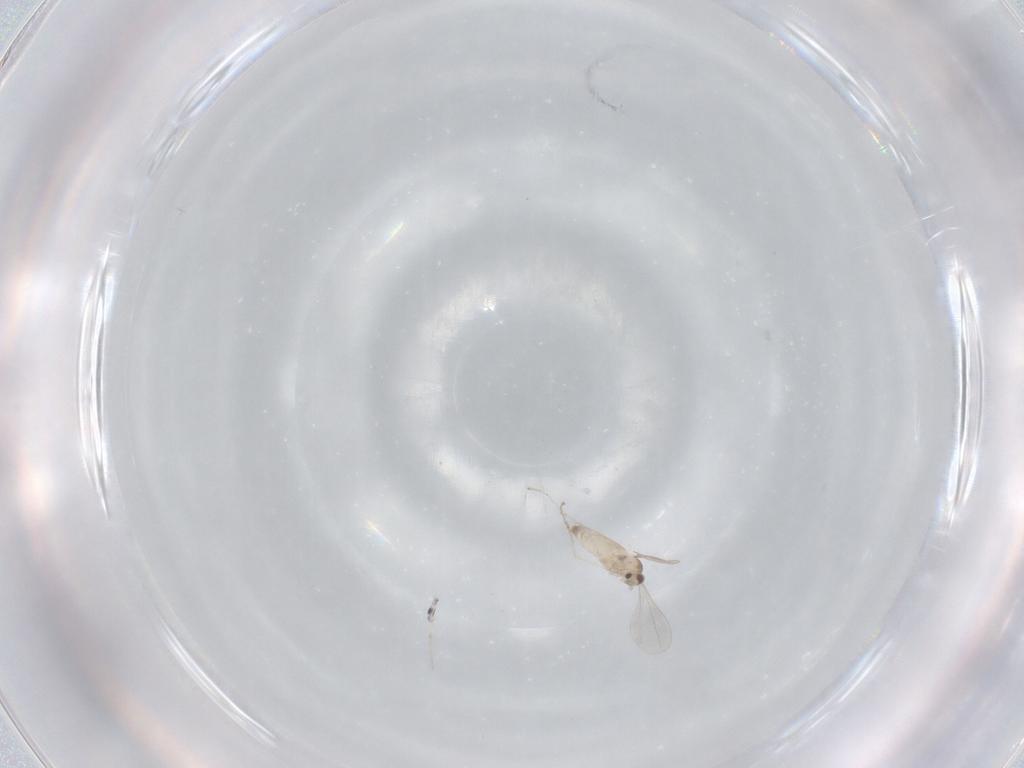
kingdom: Animalia
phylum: Arthropoda
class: Insecta
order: Diptera
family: Cecidomyiidae
